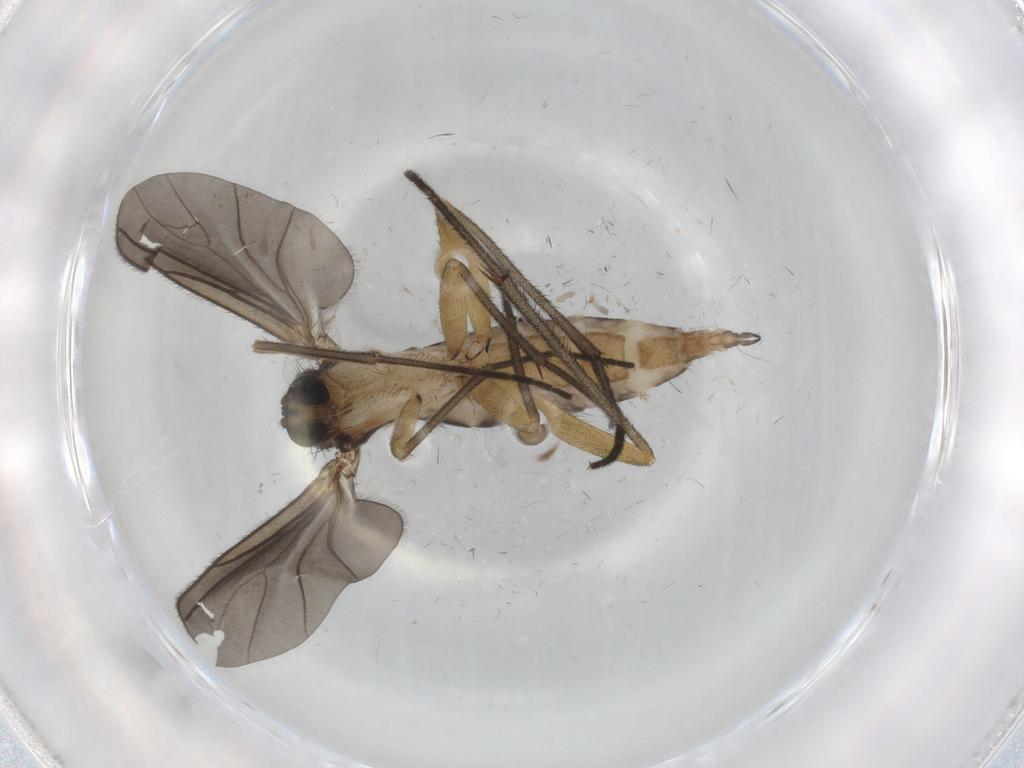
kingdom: Animalia
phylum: Arthropoda
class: Insecta
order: Diptera
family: Sciaridae
